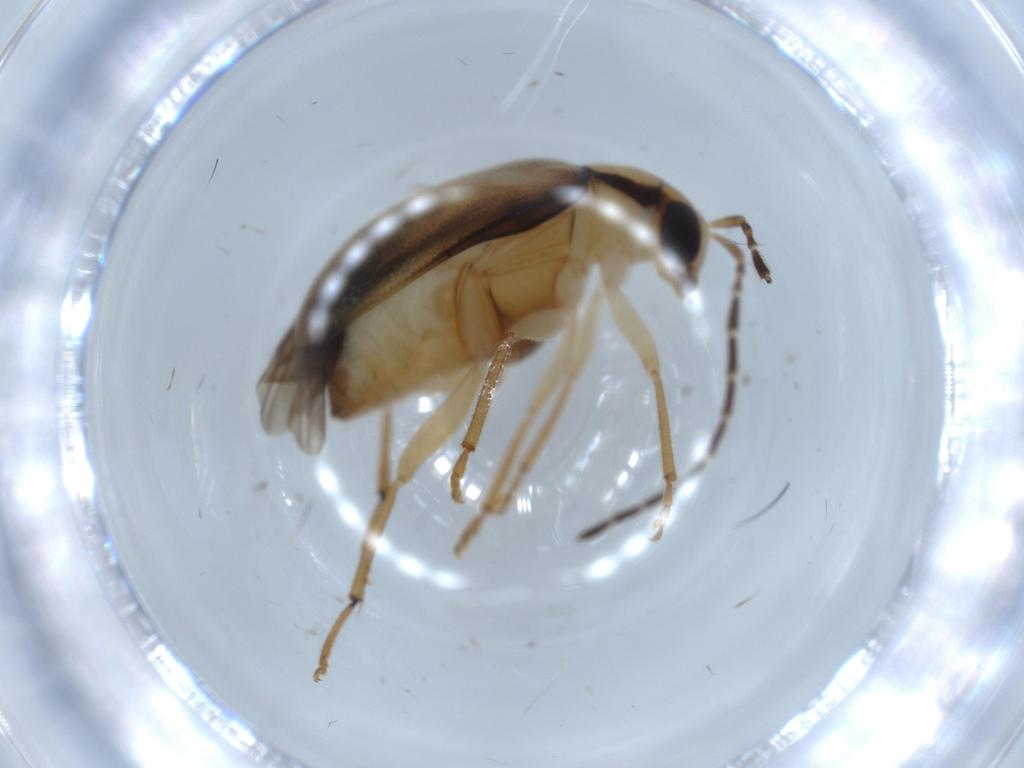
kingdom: Animalia
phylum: Arthropoda
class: Insecta
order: Coleoptera
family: Chrysomelidae
